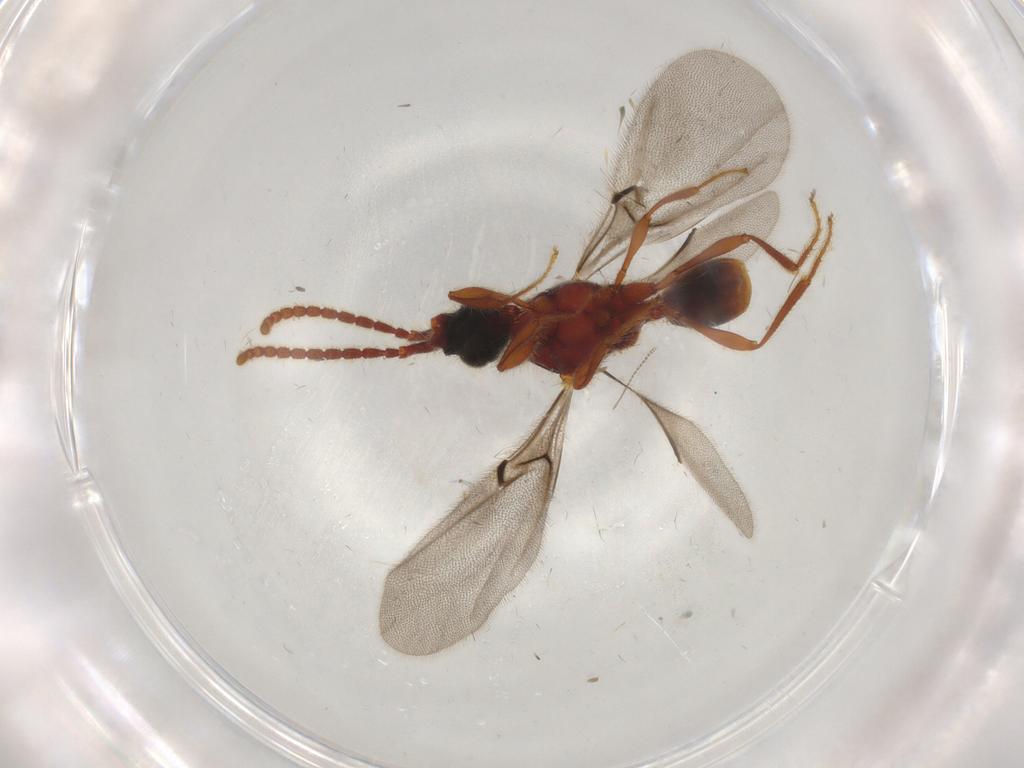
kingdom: Animalia
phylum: Arthropoda
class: Insecta
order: Hymenoptera
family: Diapriidae
